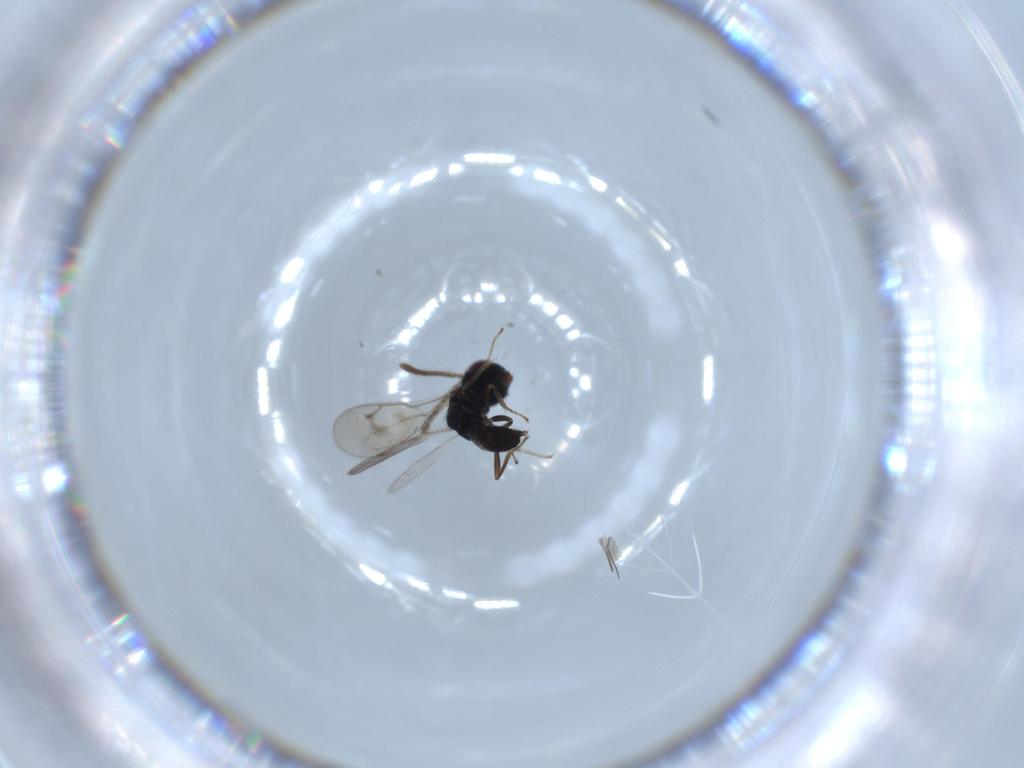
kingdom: Animalia
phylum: Arthropoda
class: Insecta
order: Hymenoptera
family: Pteromalidae
